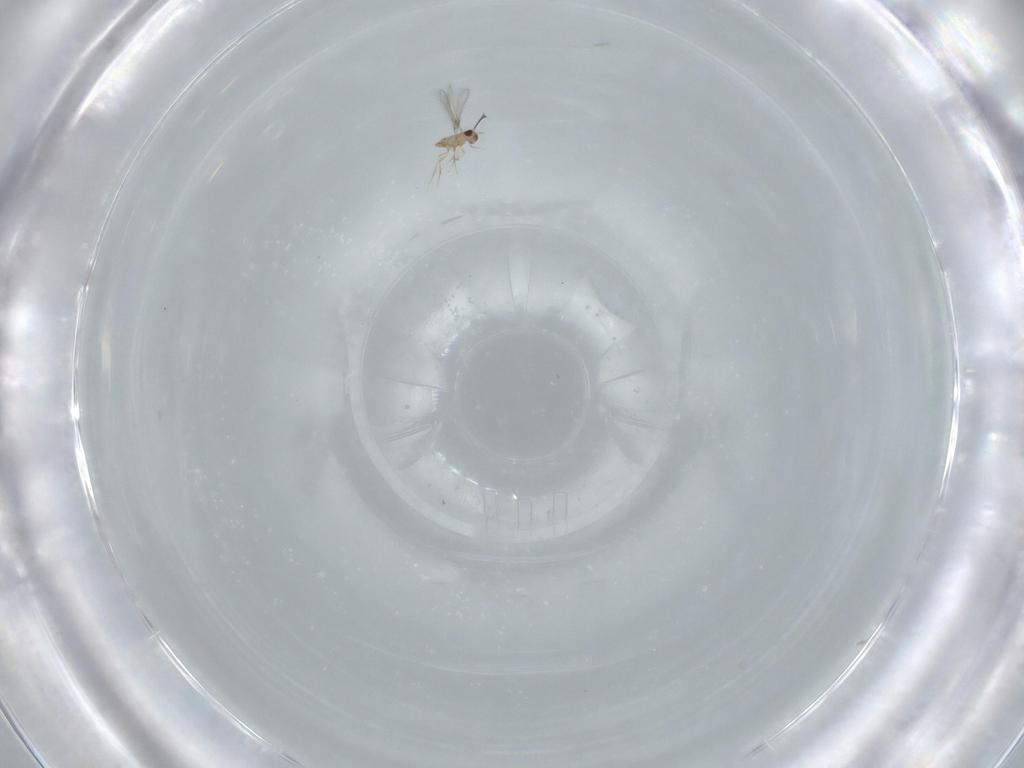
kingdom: Animalia
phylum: Arthropoda
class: Insecta
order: Hymenoptera
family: Mymaridae
